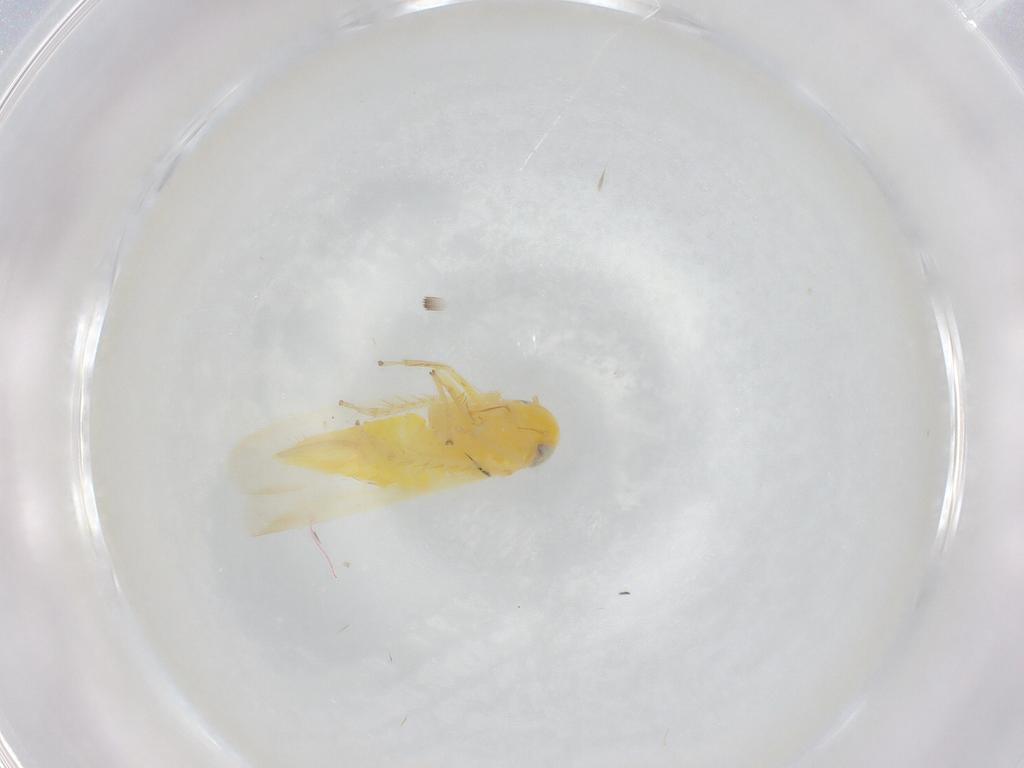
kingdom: Animalia
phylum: Arthropoda
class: Insecta
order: Hemiptera
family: Cicadellidae
